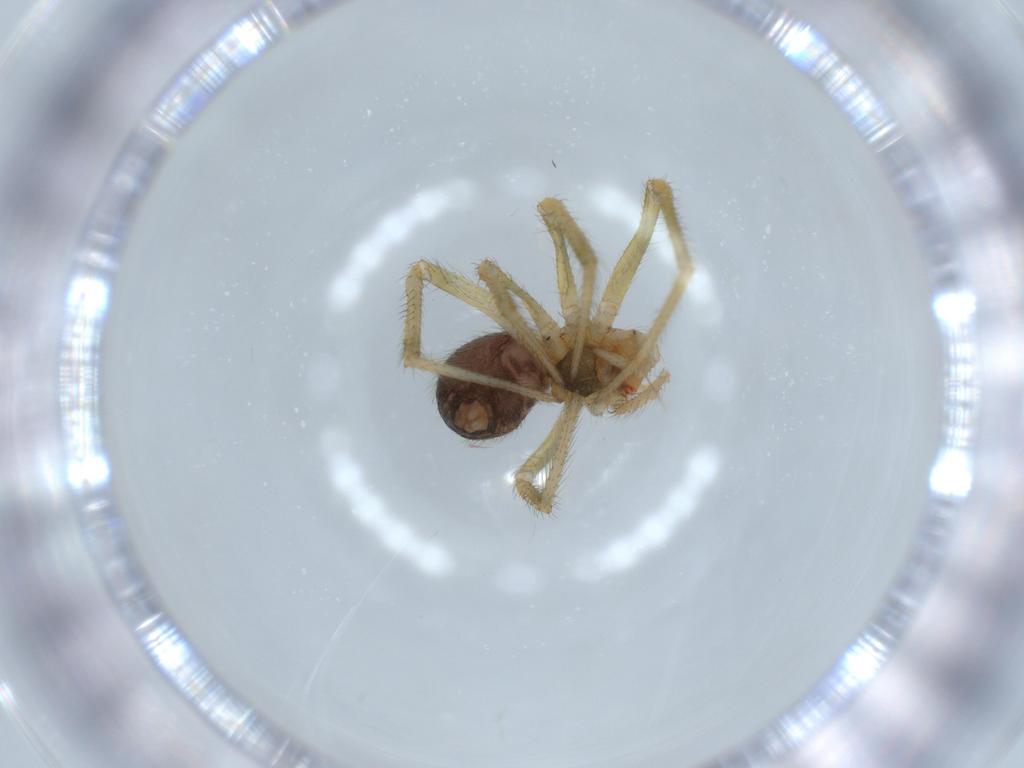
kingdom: Animalia
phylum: Arthropoda
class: Arachnida
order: Araneae
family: Nesticidae
